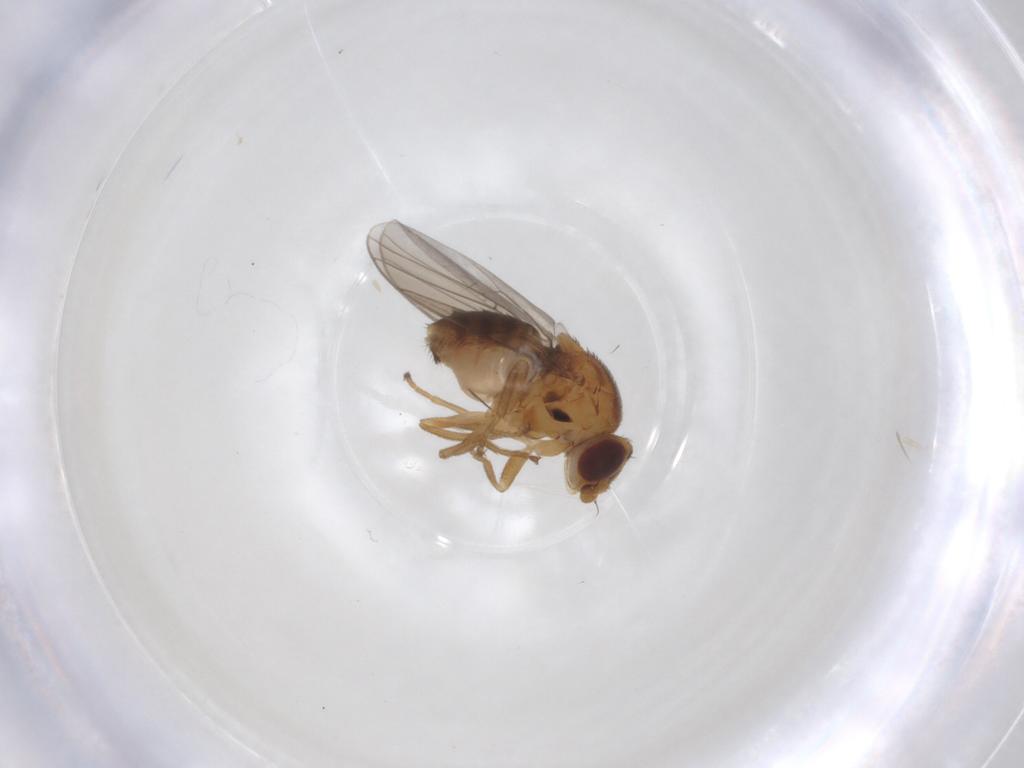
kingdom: Animalia
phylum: Arthropoda
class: Insecta
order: Diptera
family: Chloropidae
